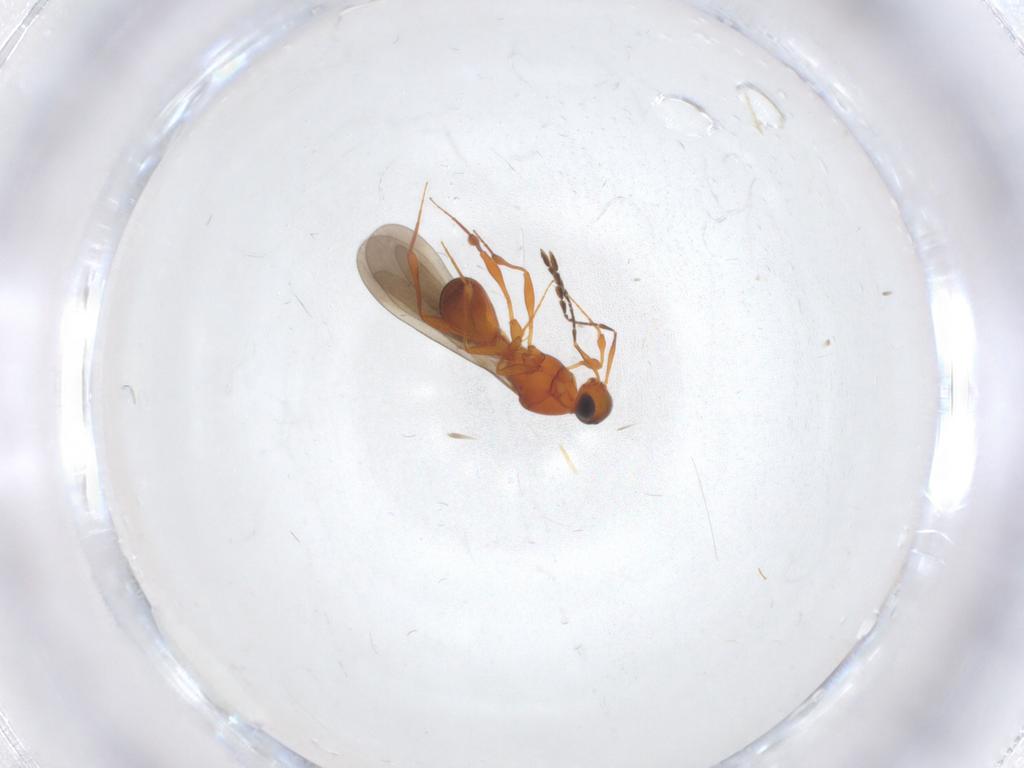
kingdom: Animalia
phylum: Arthropoda
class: Insecta
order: Hymenoptera
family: Platygastridae
